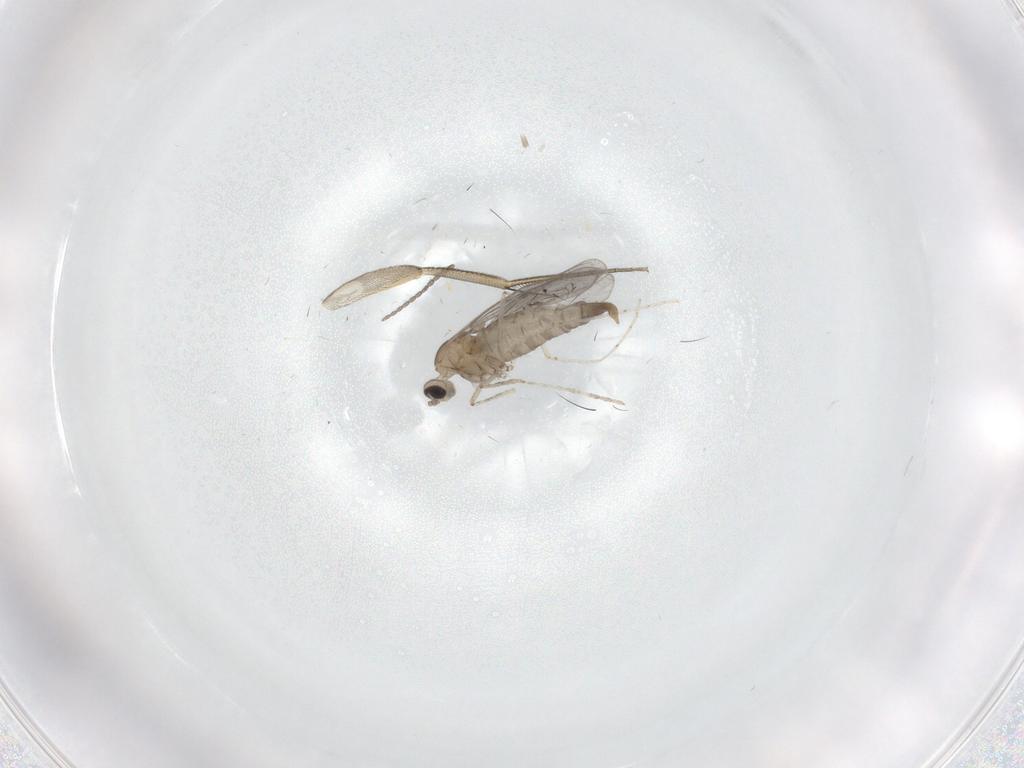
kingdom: Animalia
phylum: Arthropoda
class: Insecta
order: Diptera
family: Cecidomyiidae
